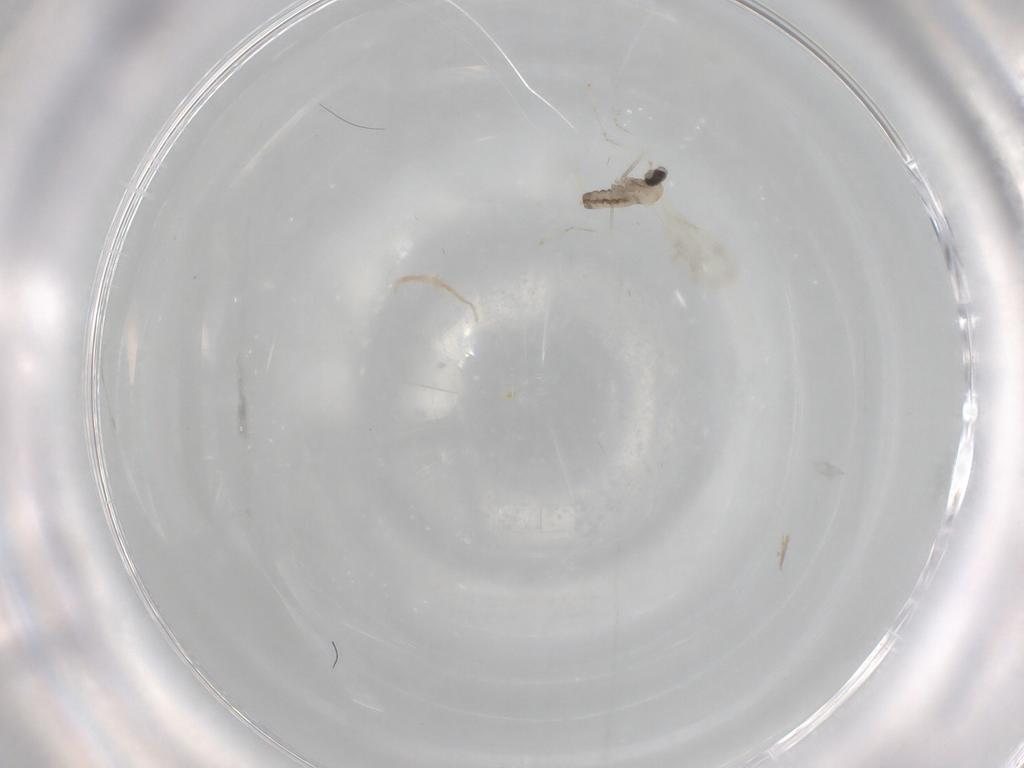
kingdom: Animalia
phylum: Arthropoda
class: Insecta
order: Diptera
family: Cecidomyiidae
